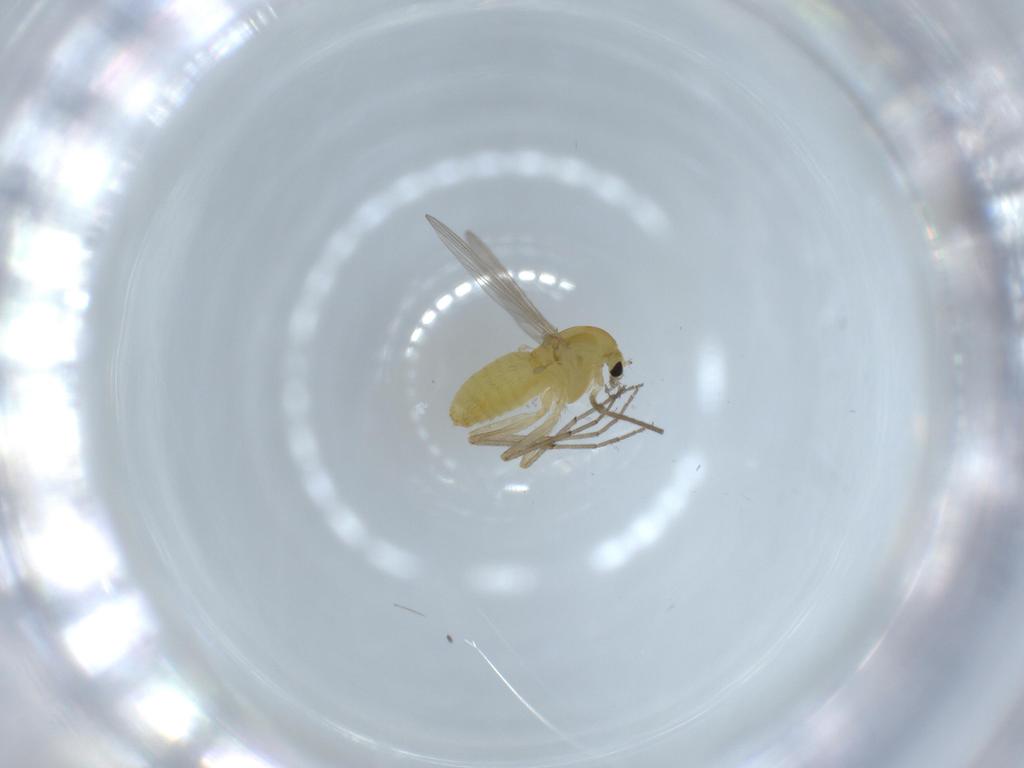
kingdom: Animalia
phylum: Arthropoda
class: Insecta
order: Diptera
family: Chironomidae
